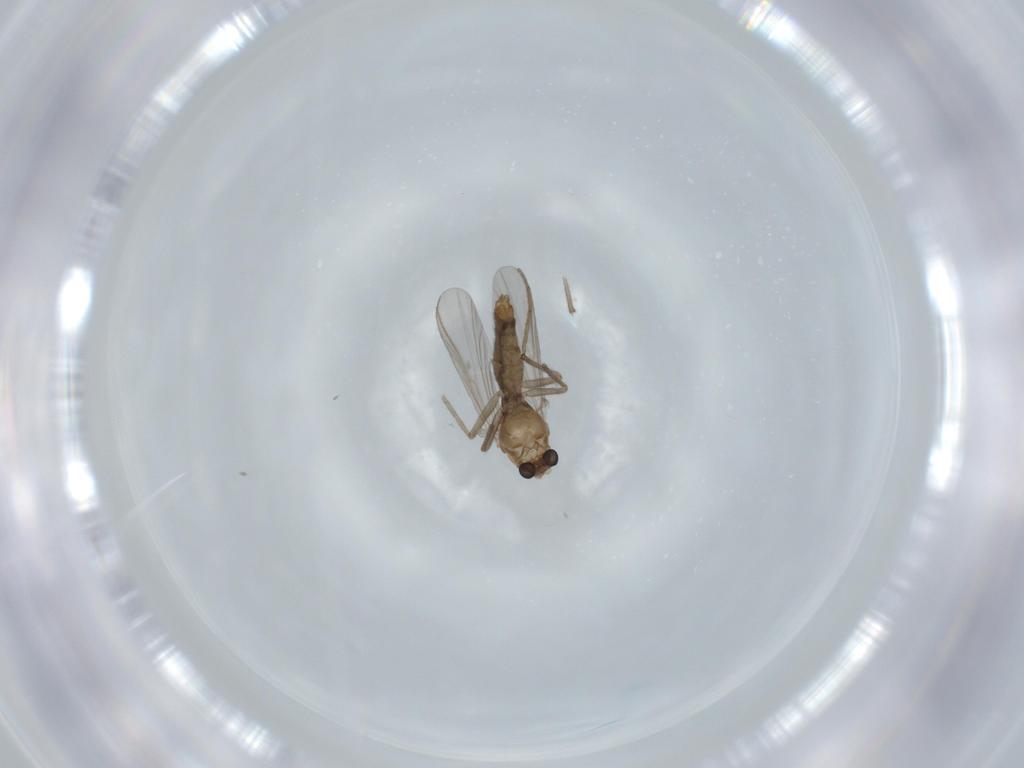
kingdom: Animalia
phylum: Arthropoda
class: Insecta
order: Diptera
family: Chironomidae
